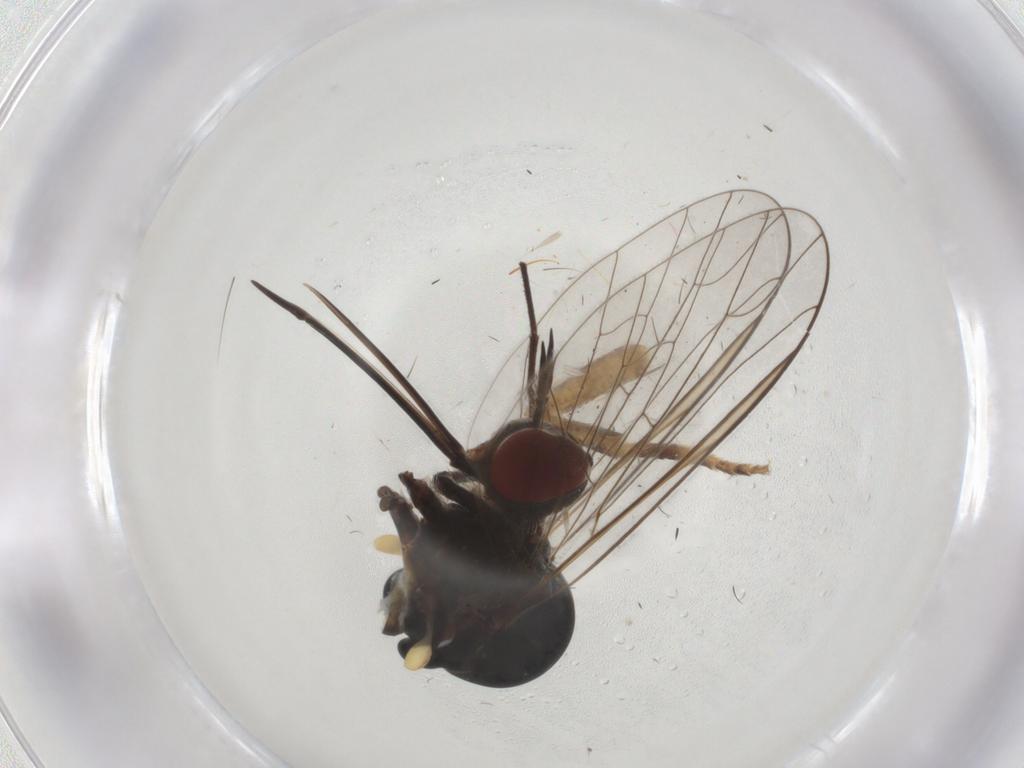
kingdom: Animalia
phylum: Arthropoda
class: Insecta
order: Diptera
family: Bombyliidae
